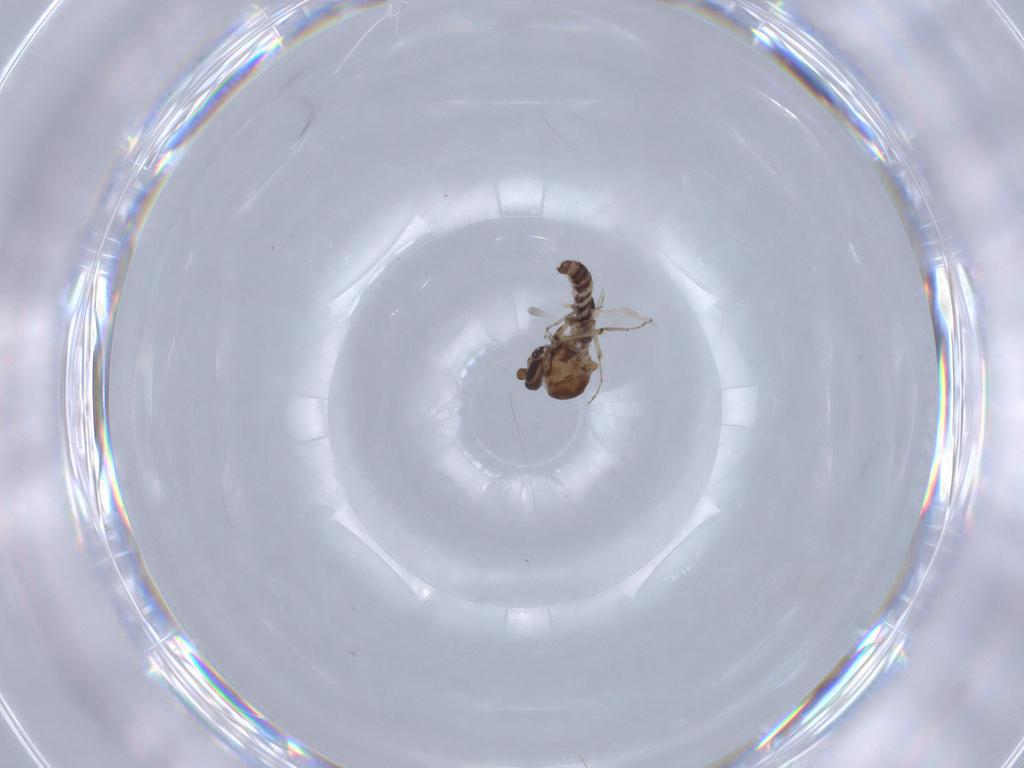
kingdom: Animalia
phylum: Arthropoda
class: Insecta
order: Diptera
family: Ceratopogonidae
